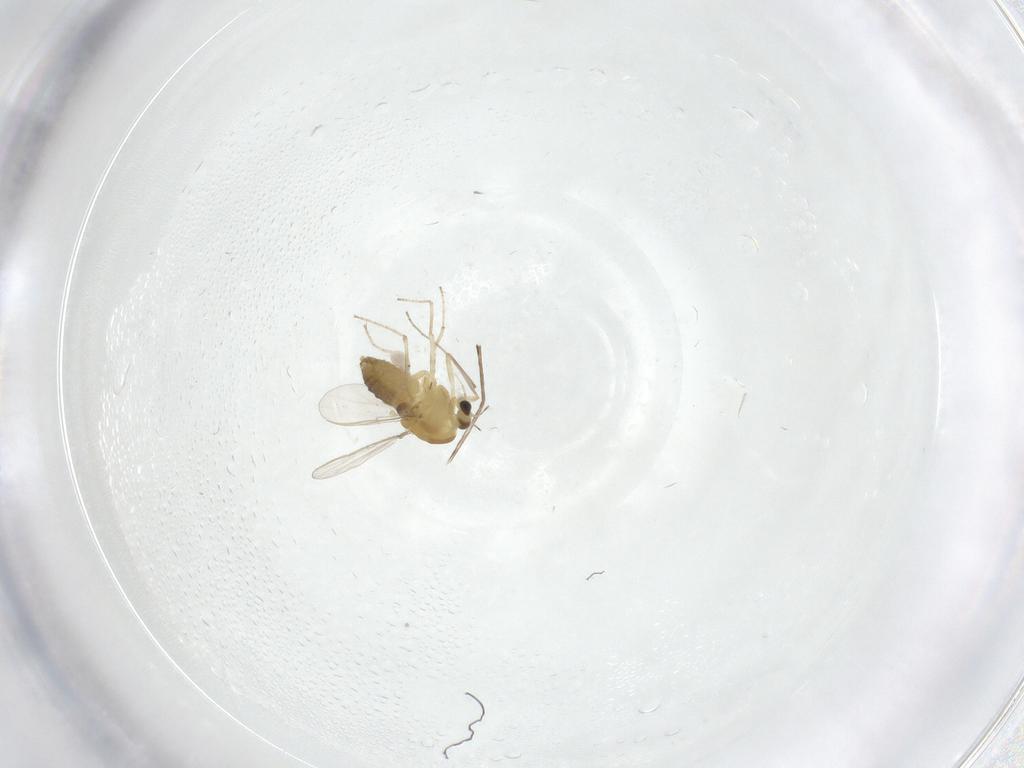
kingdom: Animalia
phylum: Arthropoda
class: Insecta
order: Diptera
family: Chironomidae
